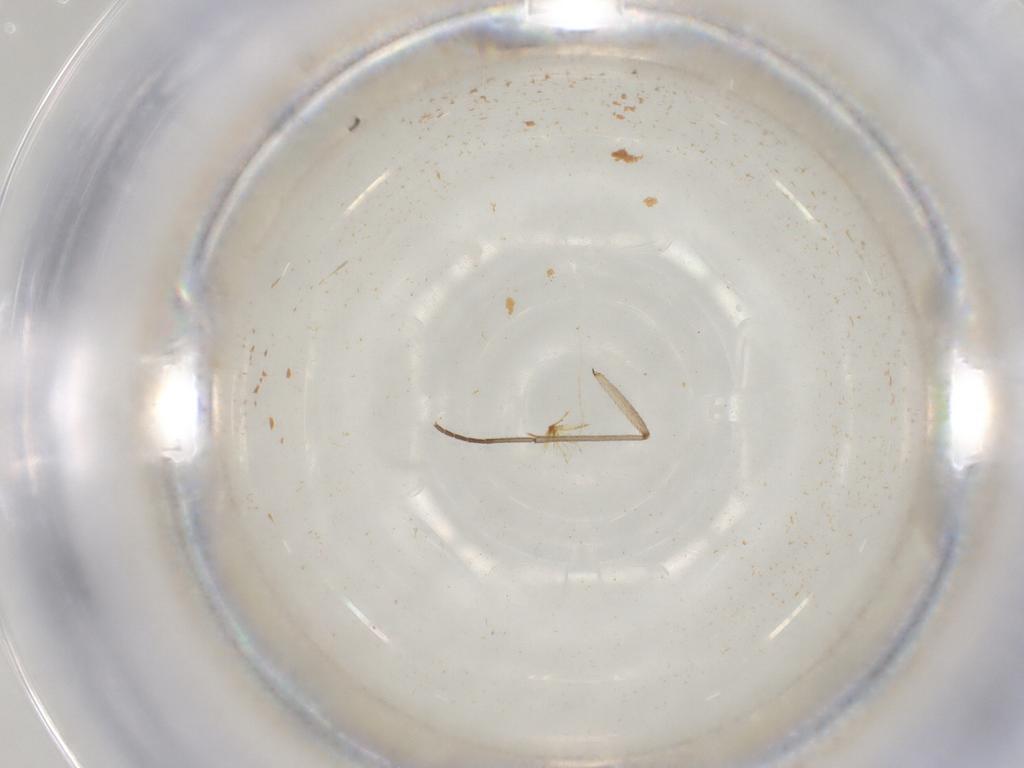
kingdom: Animalia
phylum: Arthropoda
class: Insecta
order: Diptera
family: Sciaridae
